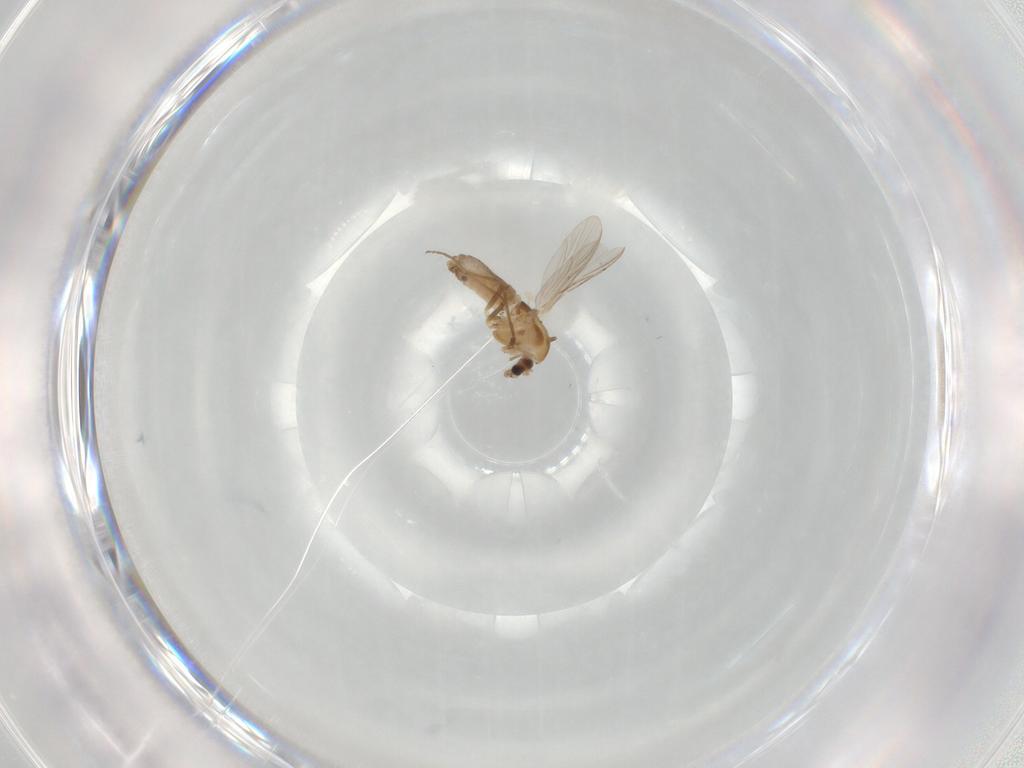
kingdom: Animalia
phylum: Arthropoda
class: Insecta
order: Diptera
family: Chironomidae
